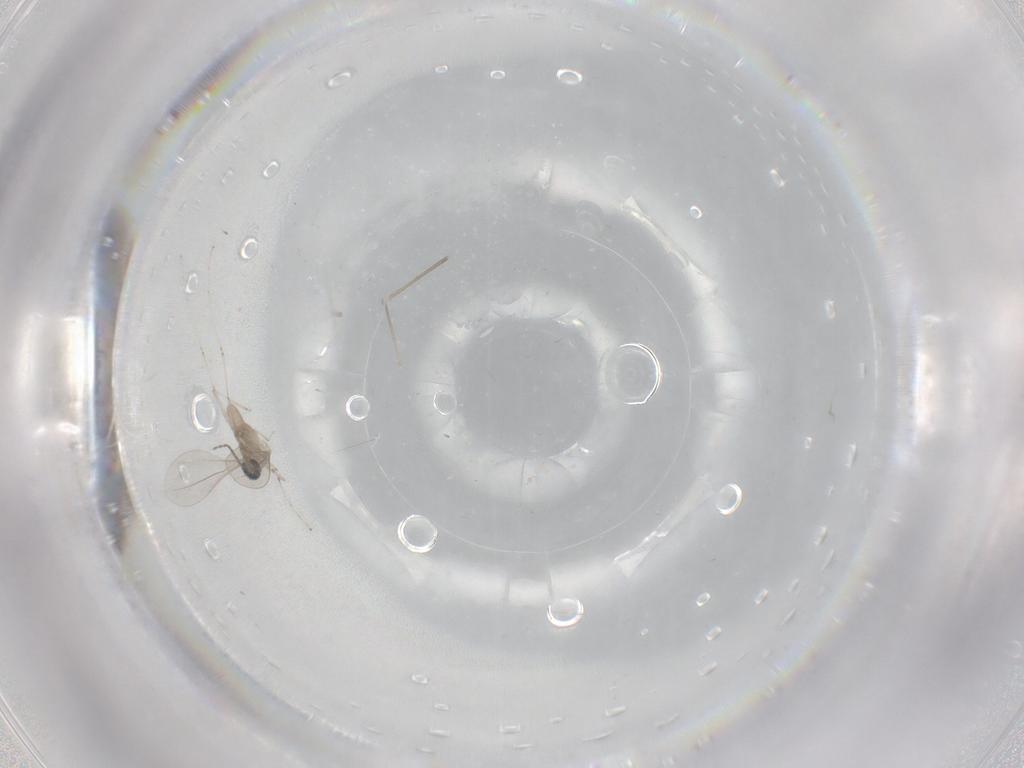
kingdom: Animalia
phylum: Arthropoda
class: Insecta
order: Diptera
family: Cecidomyiidae
